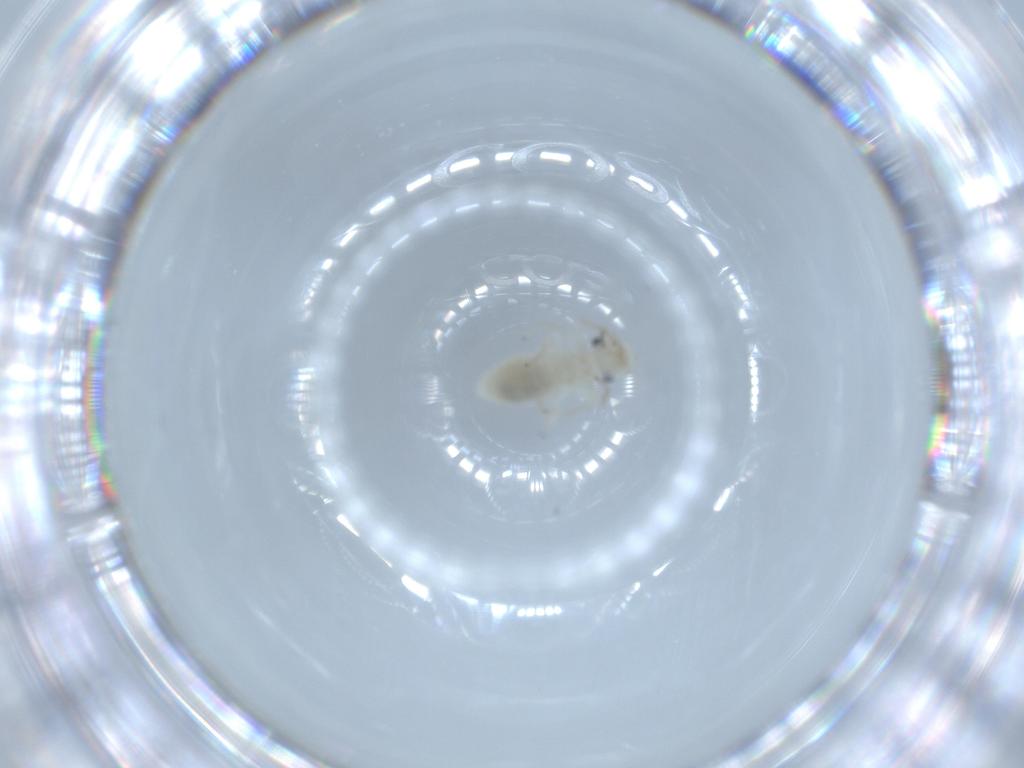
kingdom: Animalia
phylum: Arthropoda
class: Insecta
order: Psocodea
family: Caeciliusidae
